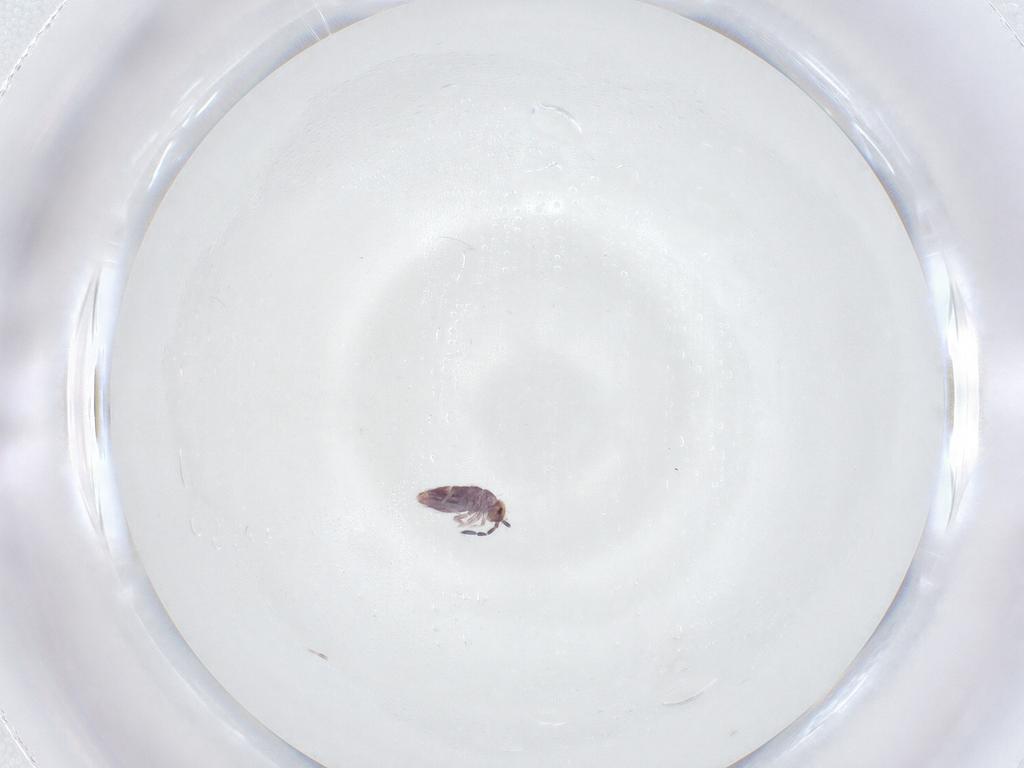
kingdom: Animalia
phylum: Arthropoda
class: Collembola
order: Entomobryomorpha
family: Entomobryidae
